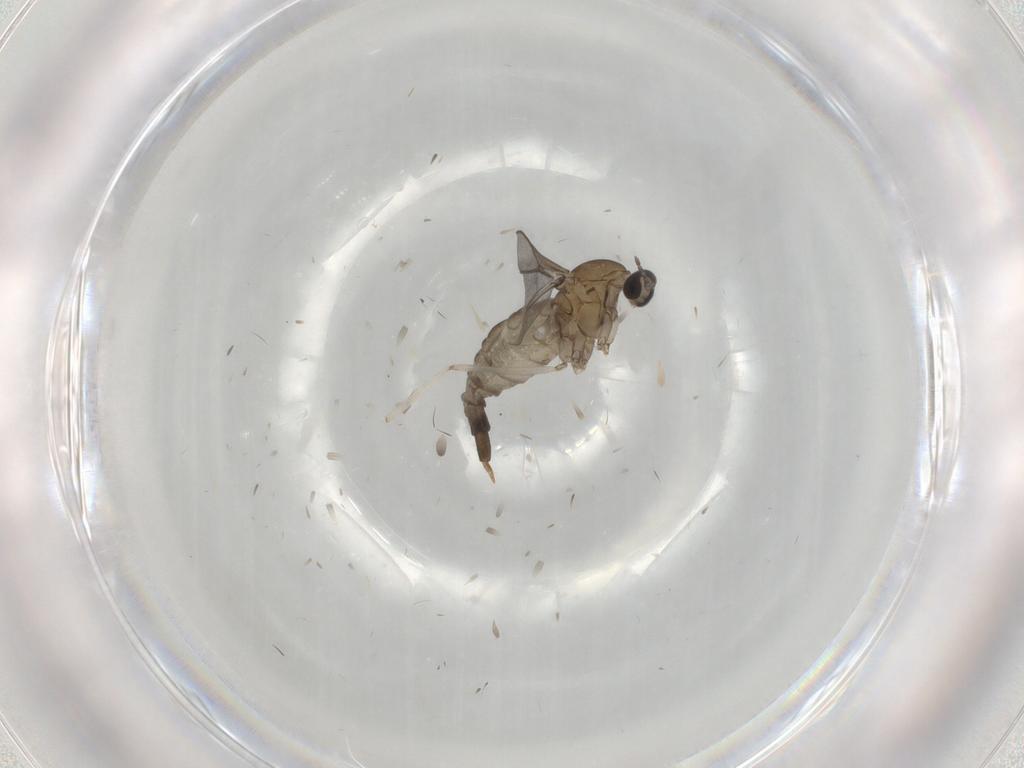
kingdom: Animalia
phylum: Arthropoda
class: Insecta
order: Diptera
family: Cecidomyiidae
